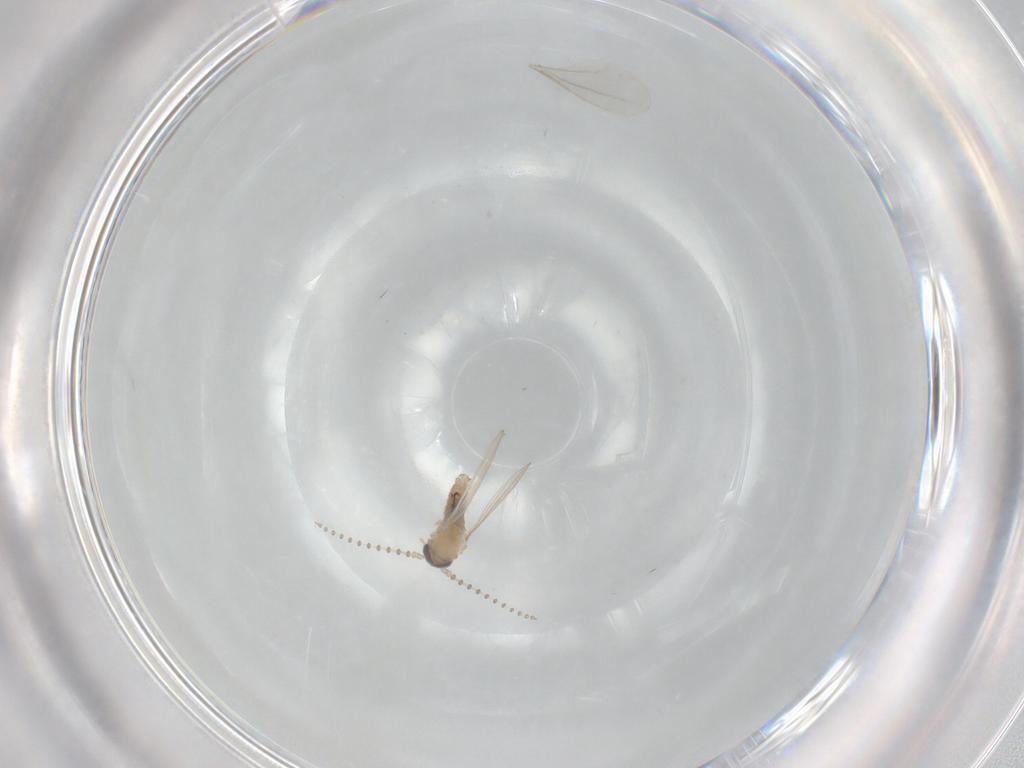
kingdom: Animalia
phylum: Arthropoda
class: Insecta
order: Diptera
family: Psychodidae
